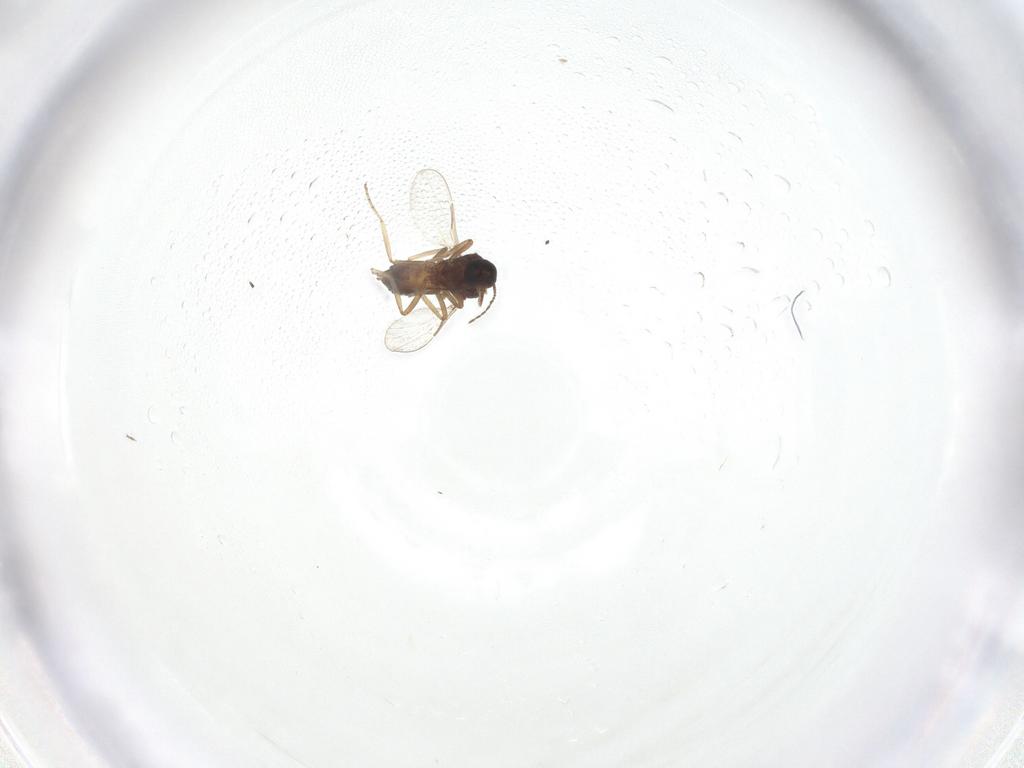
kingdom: Animalia
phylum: Arthropoda
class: Insecta
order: Diptera
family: Ceratopogonidae
